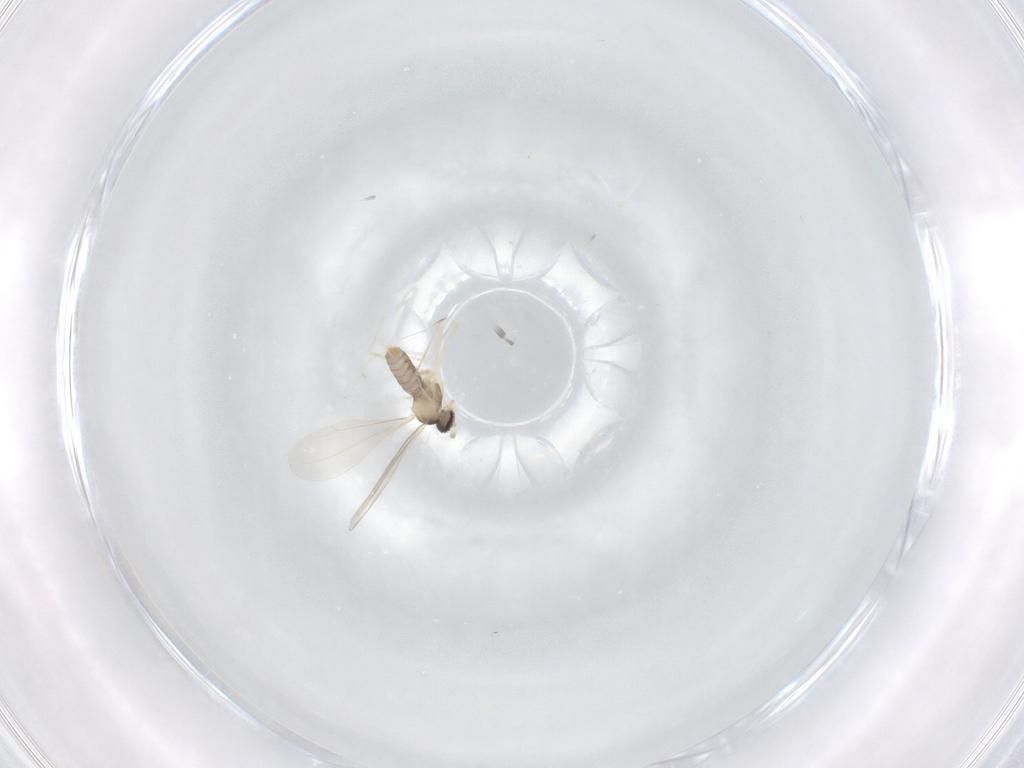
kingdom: Animalia
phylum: Arthropoda
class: Insecta
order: Diptera
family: Cecidomyiidae
